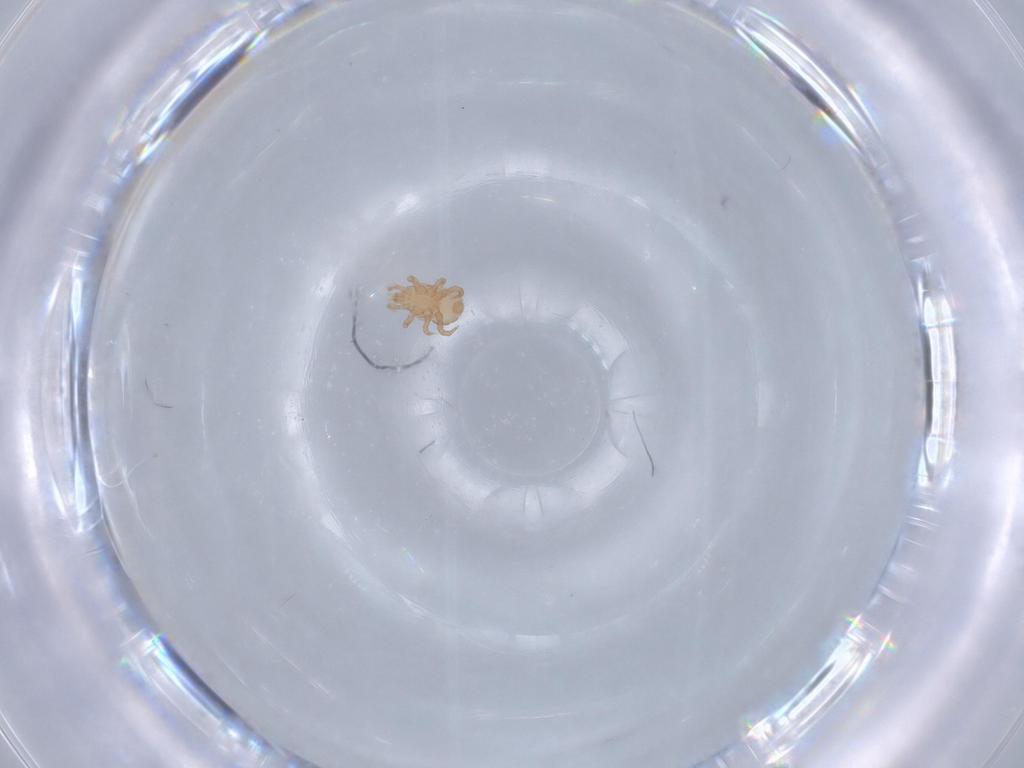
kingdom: Animalia
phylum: Arthropoda
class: Arachnida
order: Mesostigmata
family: Halolaelapidae
